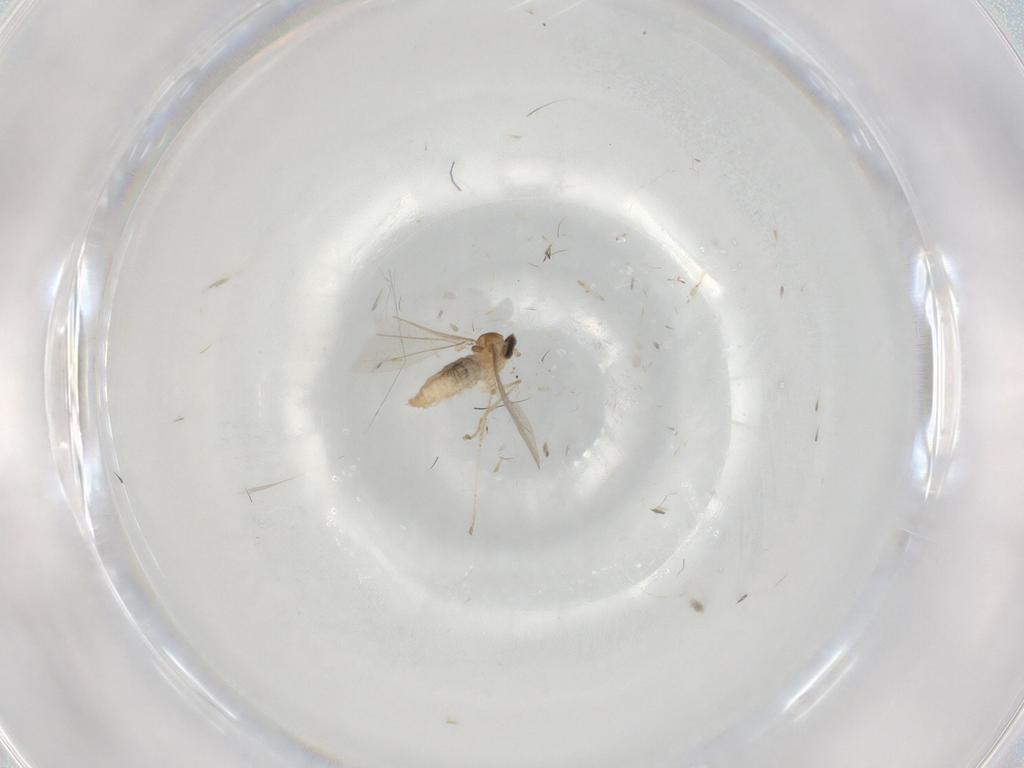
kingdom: Animalia
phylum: Arthropoda
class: Insecta
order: Diptera
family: Cecidomyiidae
